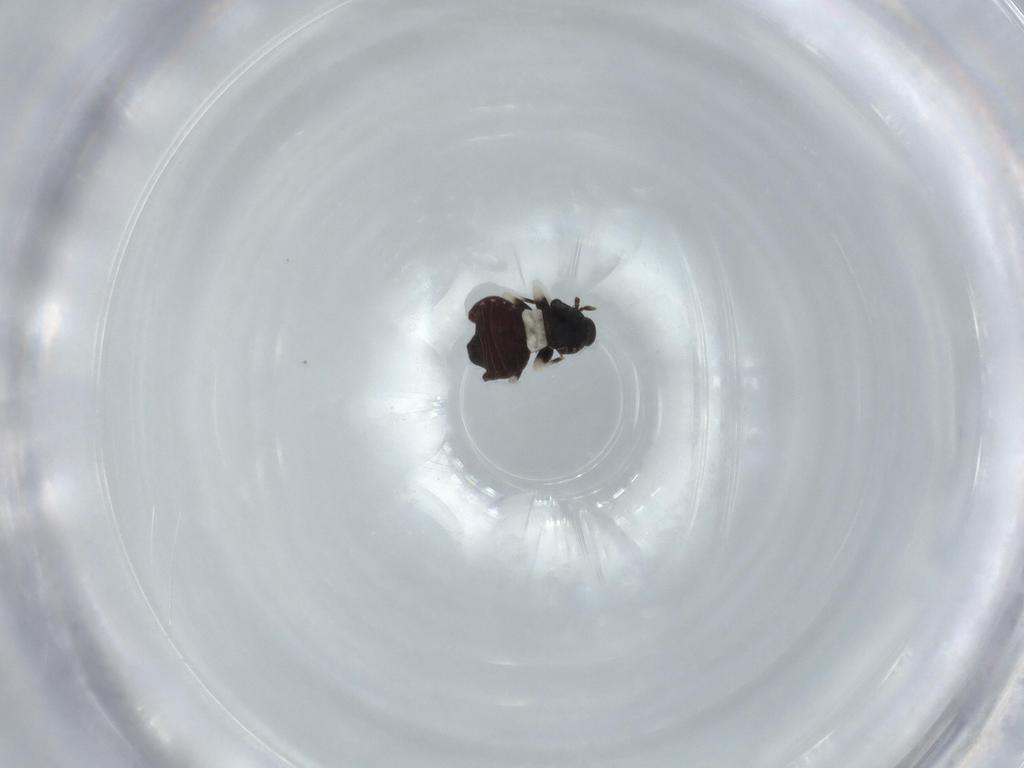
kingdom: Animalia
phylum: Arthropoda
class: Insecta
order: Psocodea
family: Lepidopsocidae
